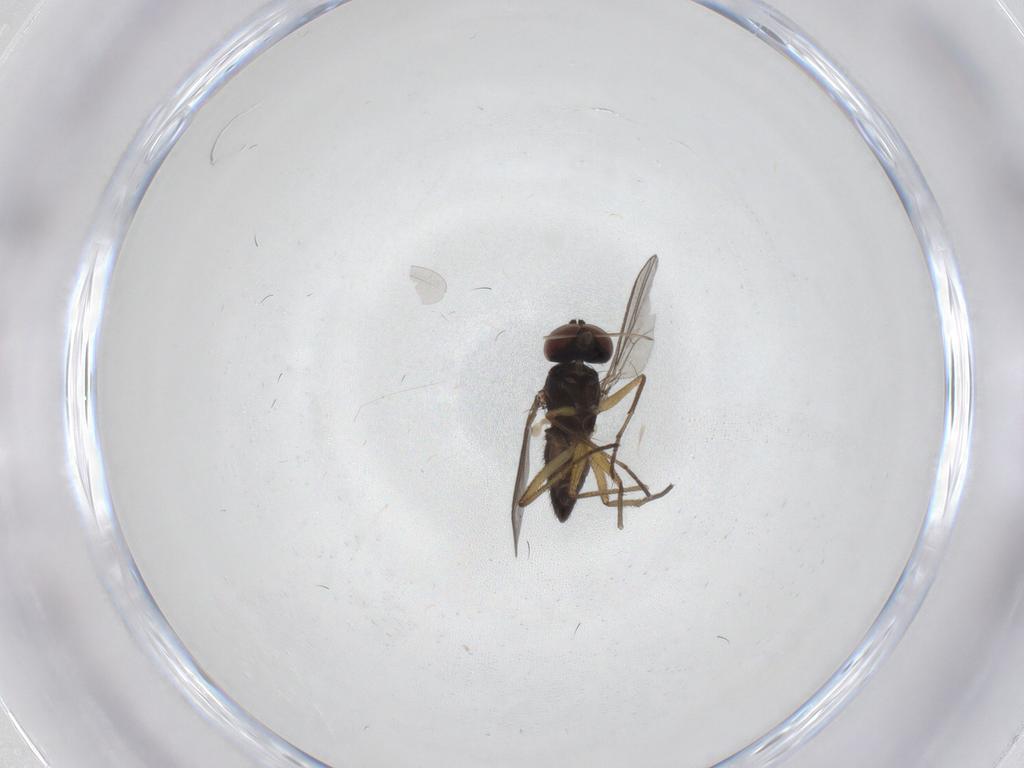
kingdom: Animalia
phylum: Arthropoda
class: Insecta
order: Diptera
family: Dolichopodidae
